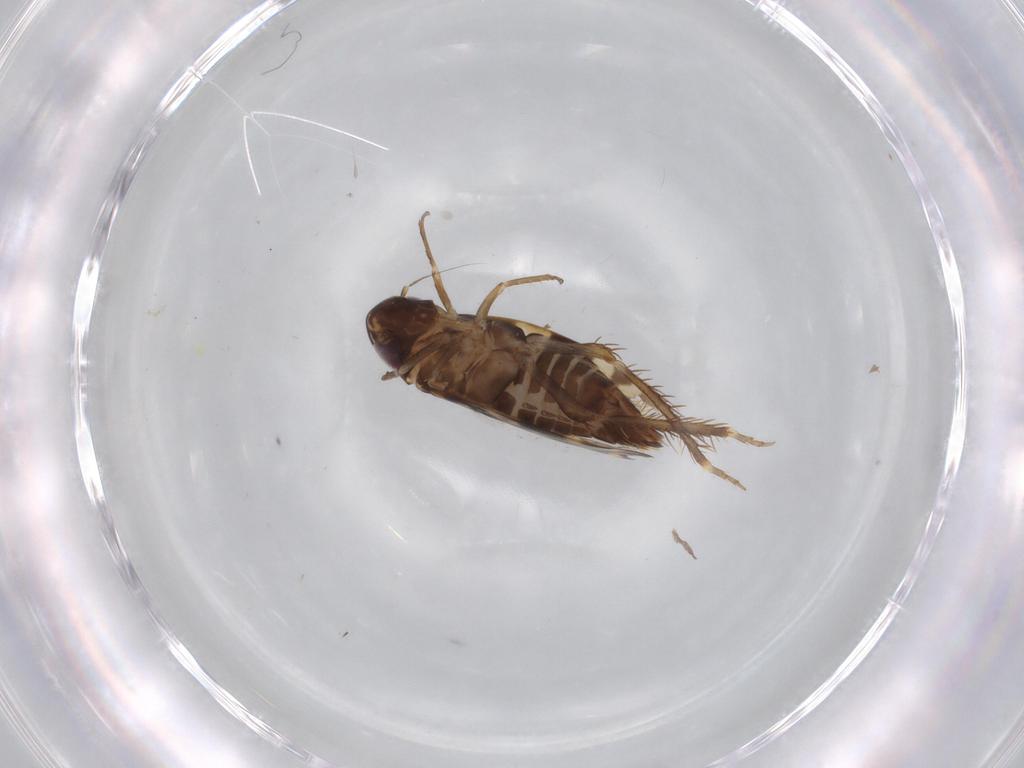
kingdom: Animalia
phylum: Arthropoda
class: Insecta
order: Hemiptera
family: Cicadellidae
